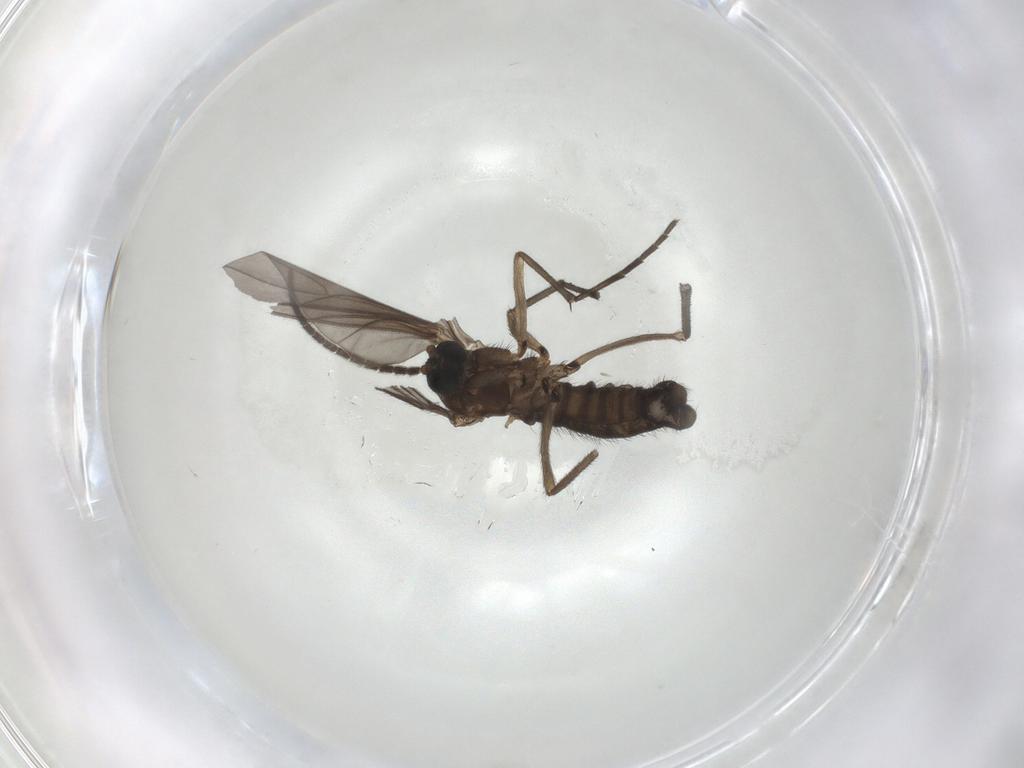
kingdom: Animalia
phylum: Arthropoda
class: Insecta
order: Diptera
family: Sciaridae
